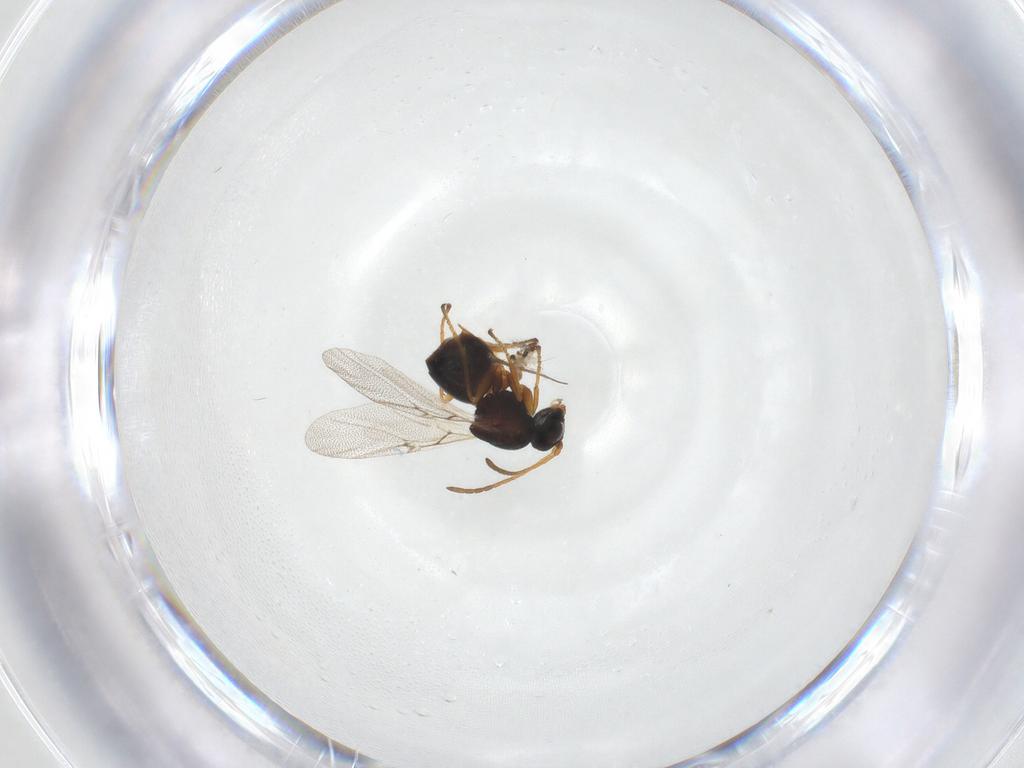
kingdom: Animalia
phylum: Arthropoda
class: Insecta
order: Hymenoptera
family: Cynipidae
